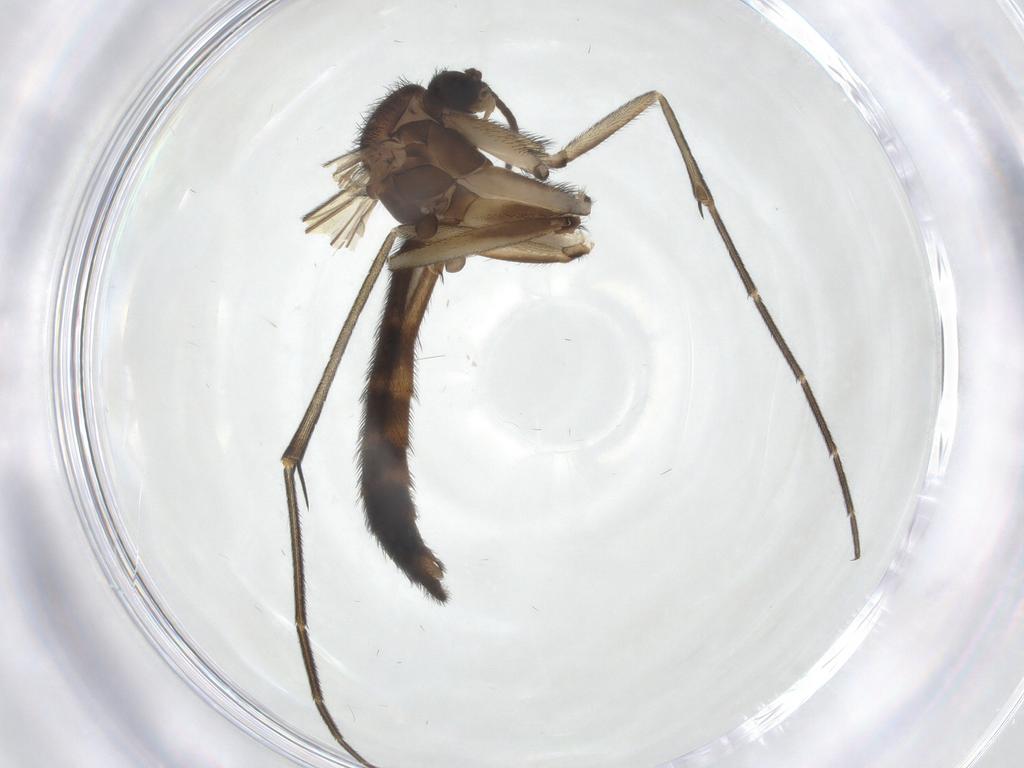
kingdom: Animalia
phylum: Arthropoda
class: Insecta
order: Diptera
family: Keroplatidae
